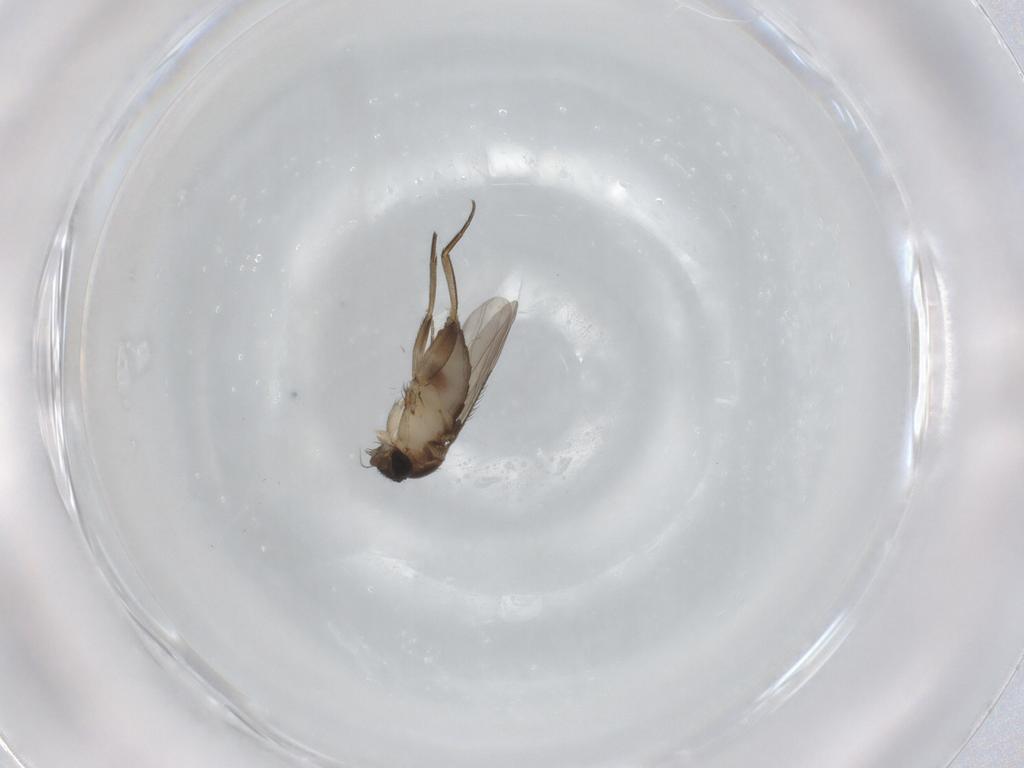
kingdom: Animalia
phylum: Arthropoda
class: Insecta
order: Diptera
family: Phoridae
